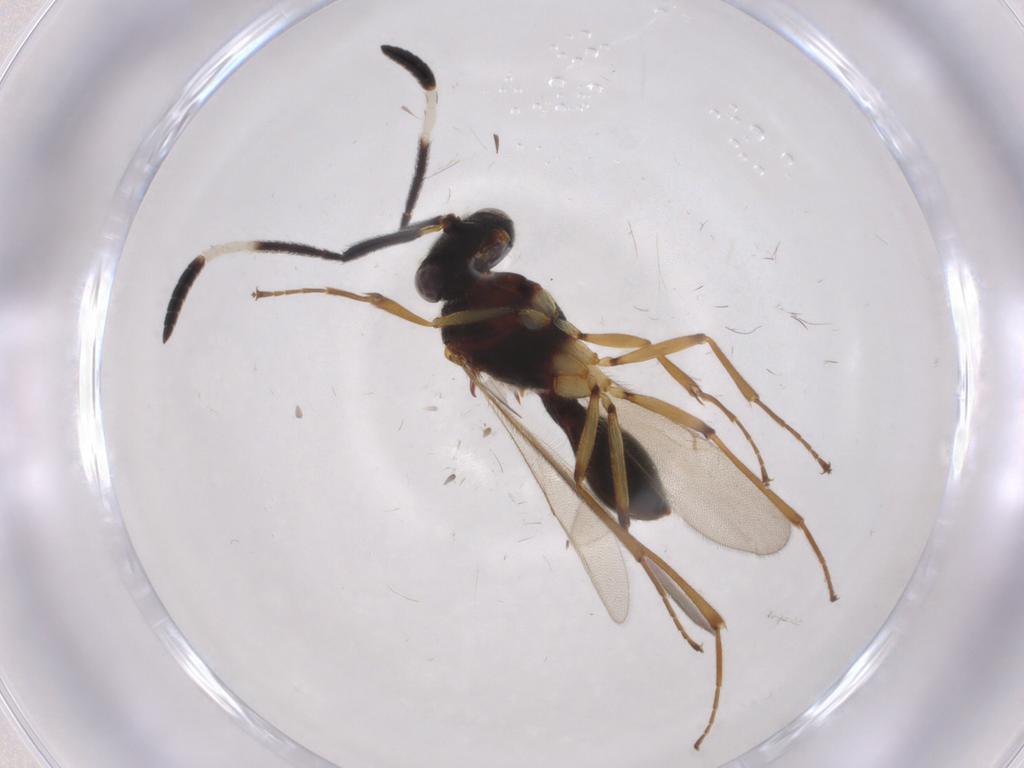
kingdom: Animalia
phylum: Arthropoda
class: Insecta
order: Hymenoptera
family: Scelionidae
